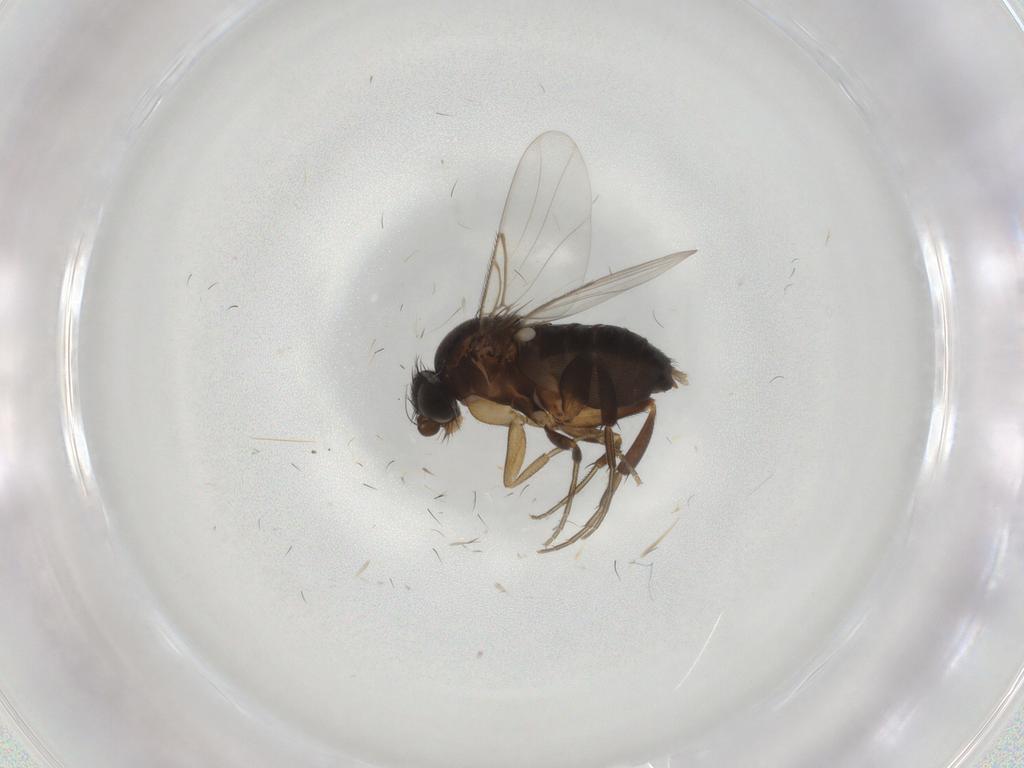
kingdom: Animalia
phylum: Arthropoda
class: Insecta
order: Diptera
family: Phoridae
